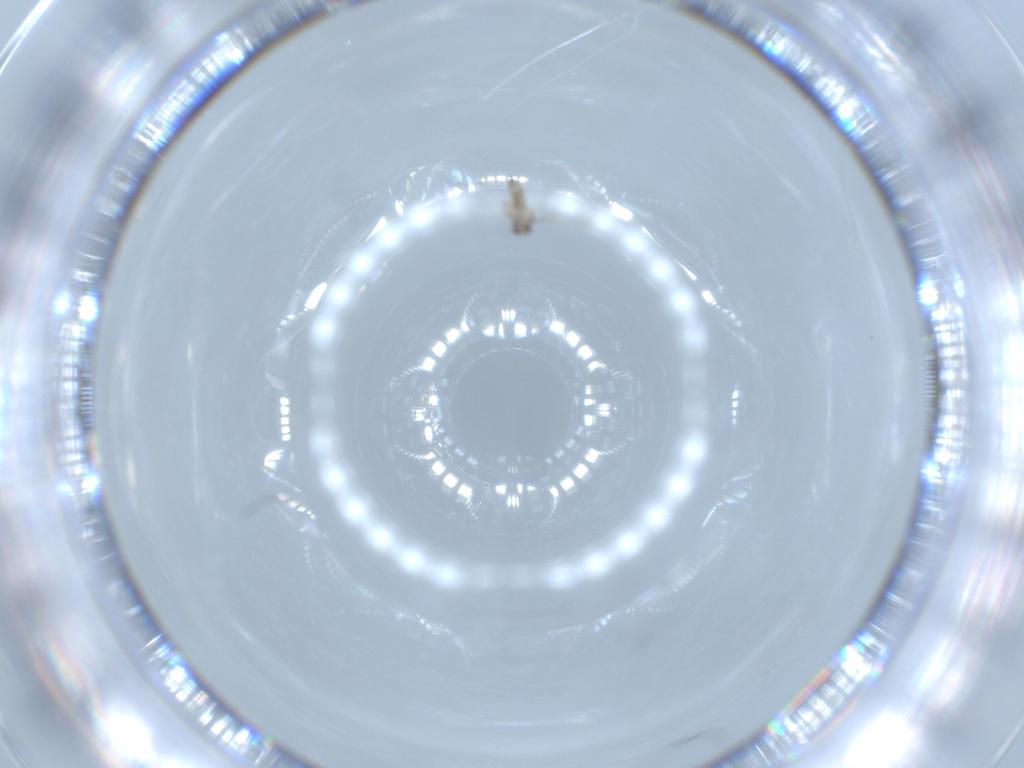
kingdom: Animalia
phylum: Arthropoda
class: Insecta
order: Diptera
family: Cecidomyiidae
